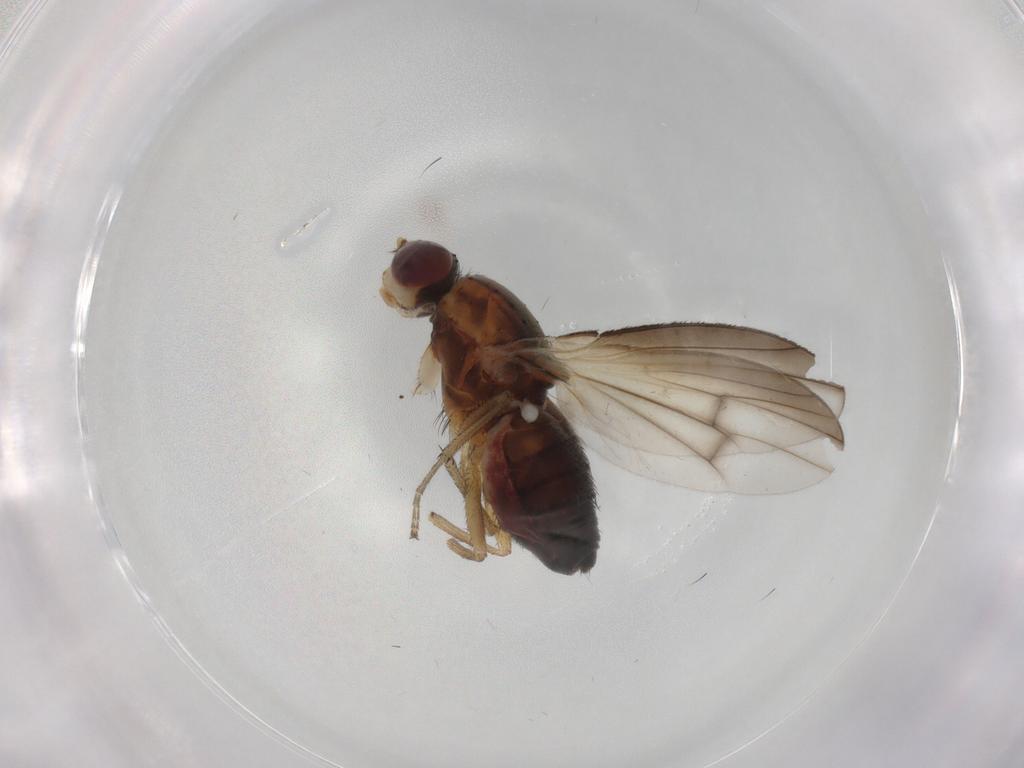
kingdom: Animalia
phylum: Arthropoda
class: Insecta
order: Diptera
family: Heleomyzidae
